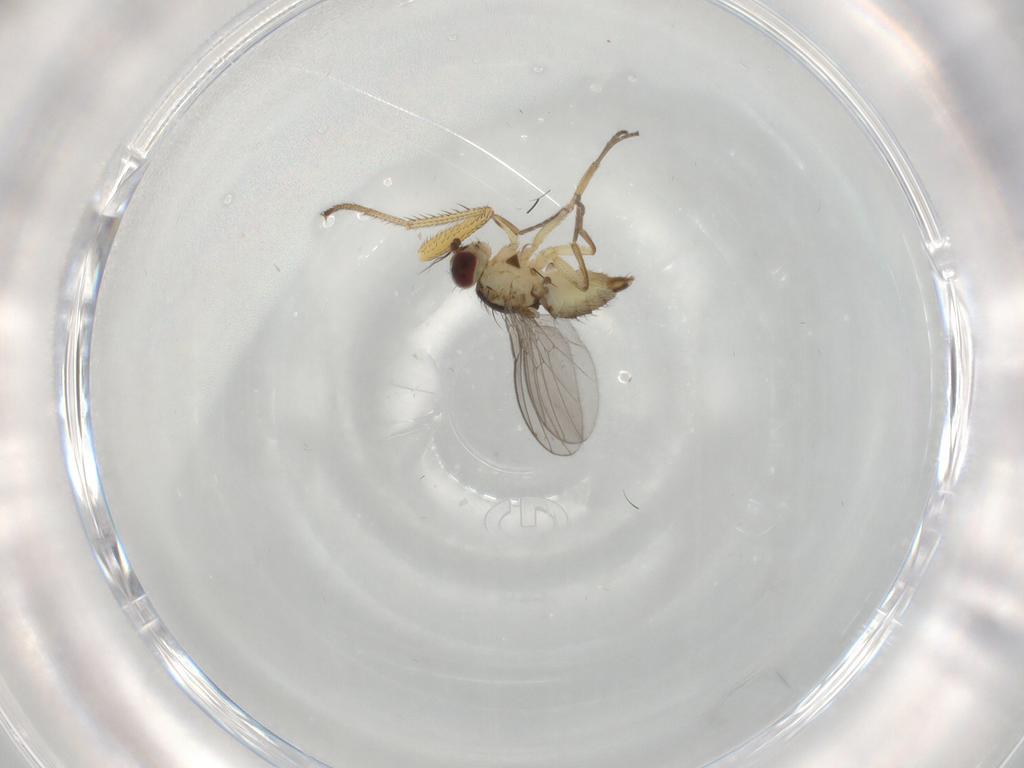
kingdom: Animalia
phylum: Arthropoda
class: Insecta
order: Diptera
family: Agromyzidae
